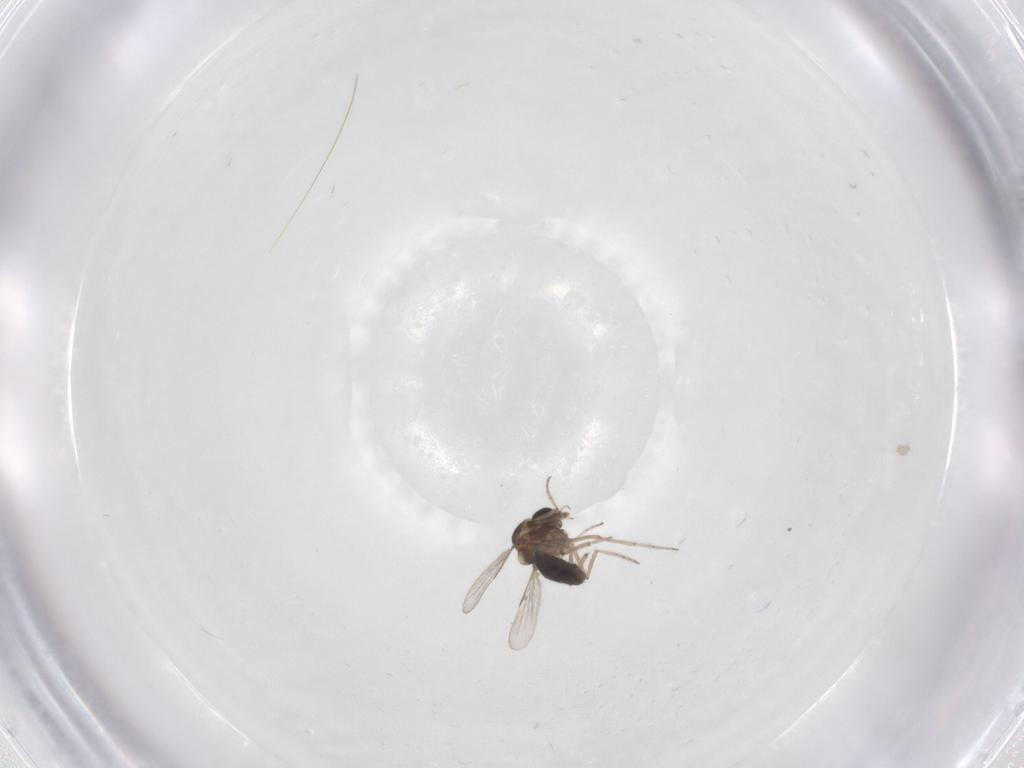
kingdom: Animalia
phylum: Arthropoda
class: Insecta
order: Diptera
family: Ceratopogonidae
